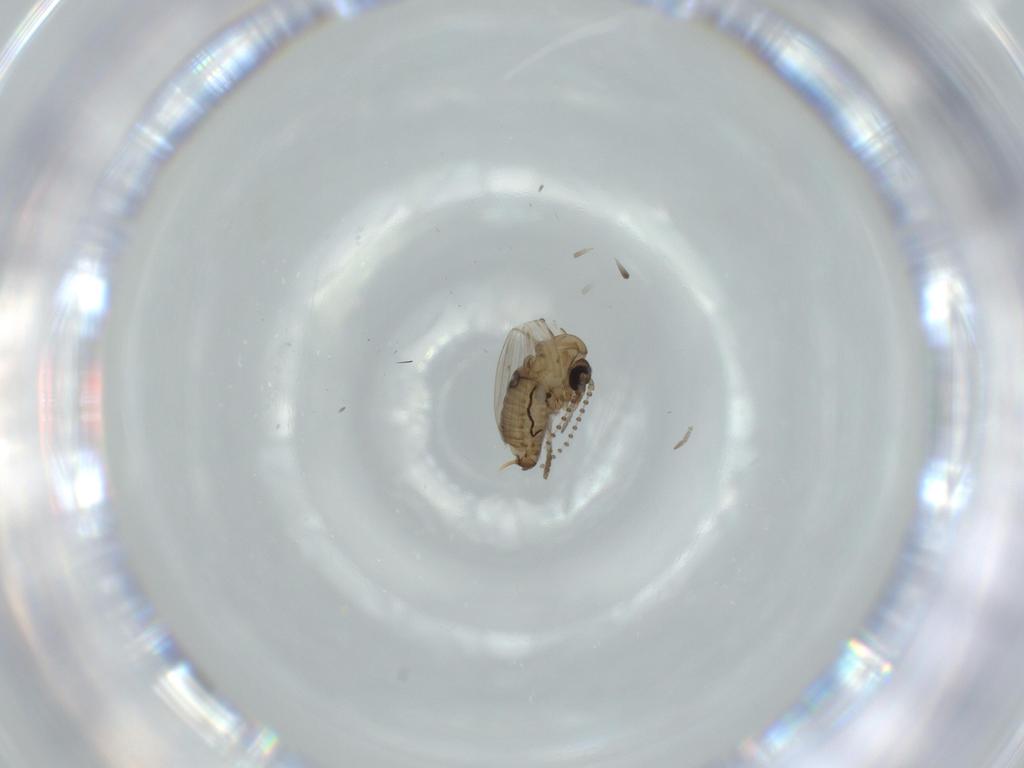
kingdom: Animalia
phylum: Arthropoda
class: Insecta
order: Diptera
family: Psychodidae
